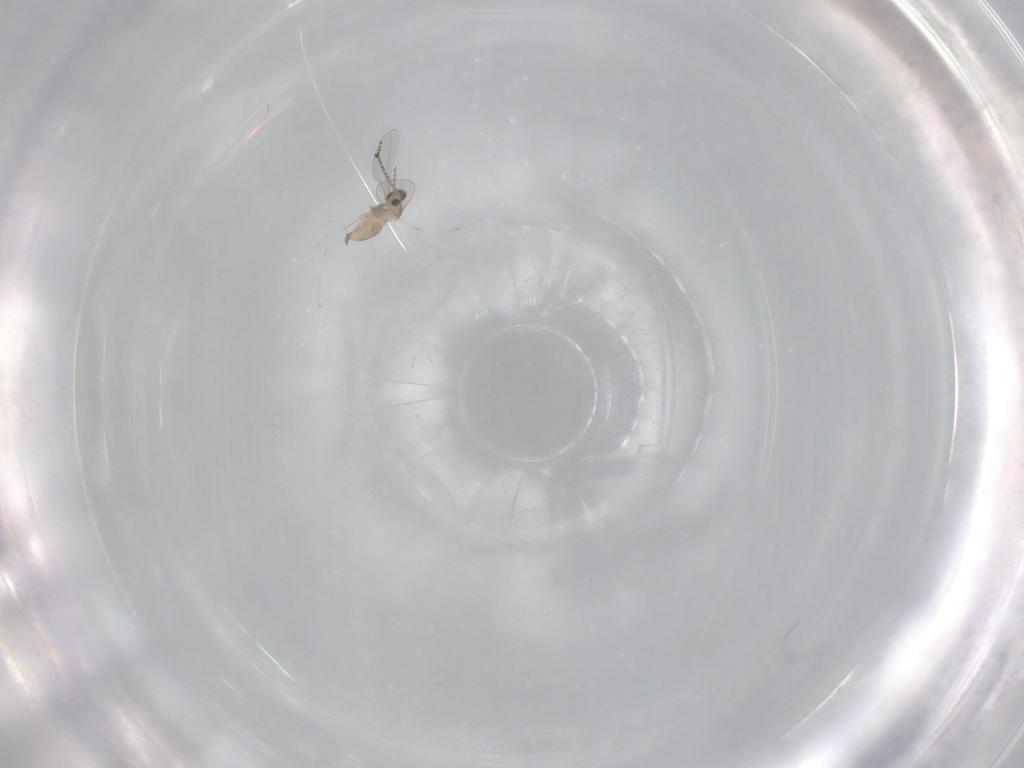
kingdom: Animalia
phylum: Arthropoda
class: Insecta
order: Diptera
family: Cecidomyiidae
